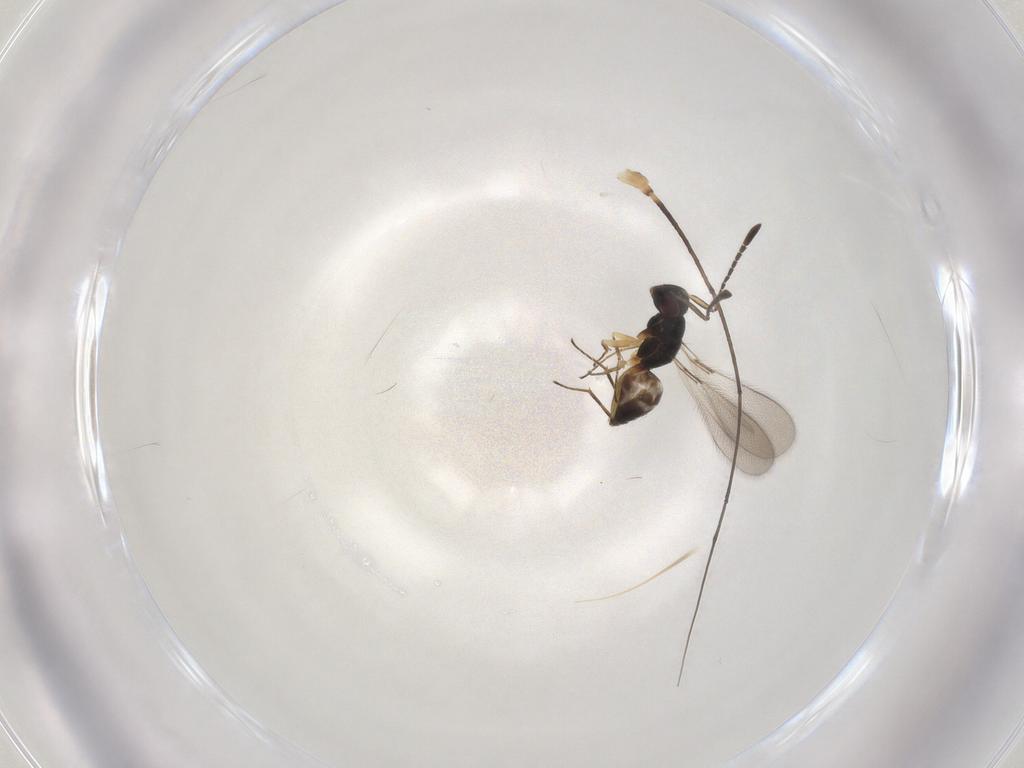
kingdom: Animalia
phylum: Arthropoda
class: Insecta
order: Hymenoptera
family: Mymaridae
